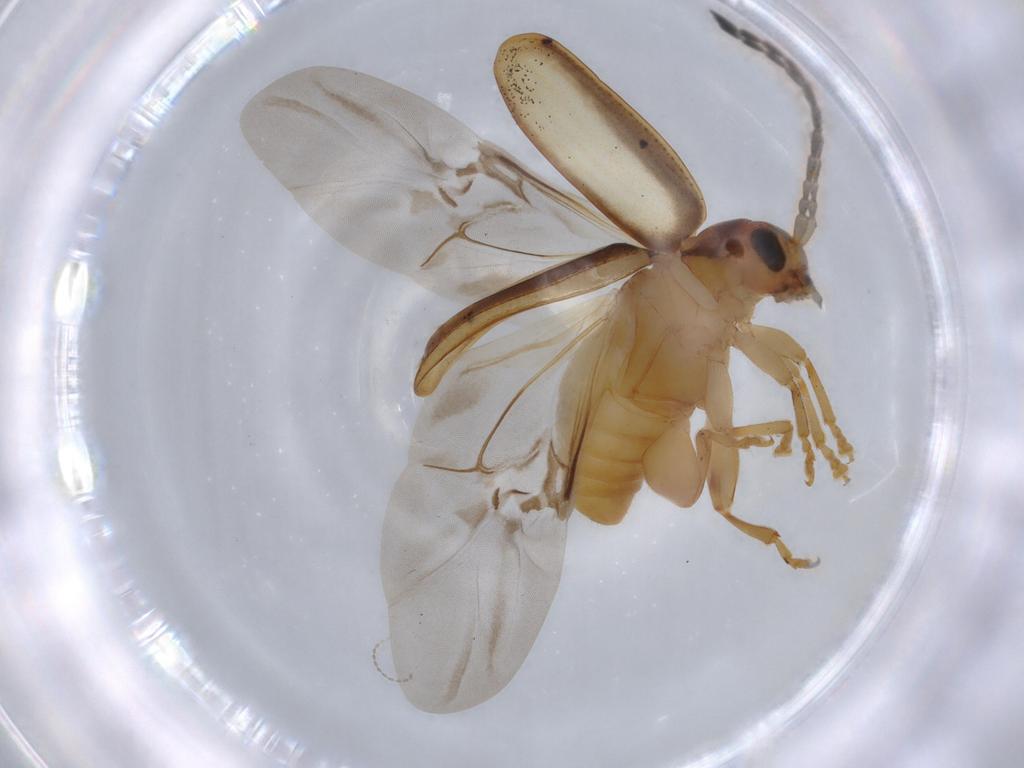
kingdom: Animalia
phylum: Arthropoda
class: Insecta
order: Coleoptera
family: Chrysomelidae
